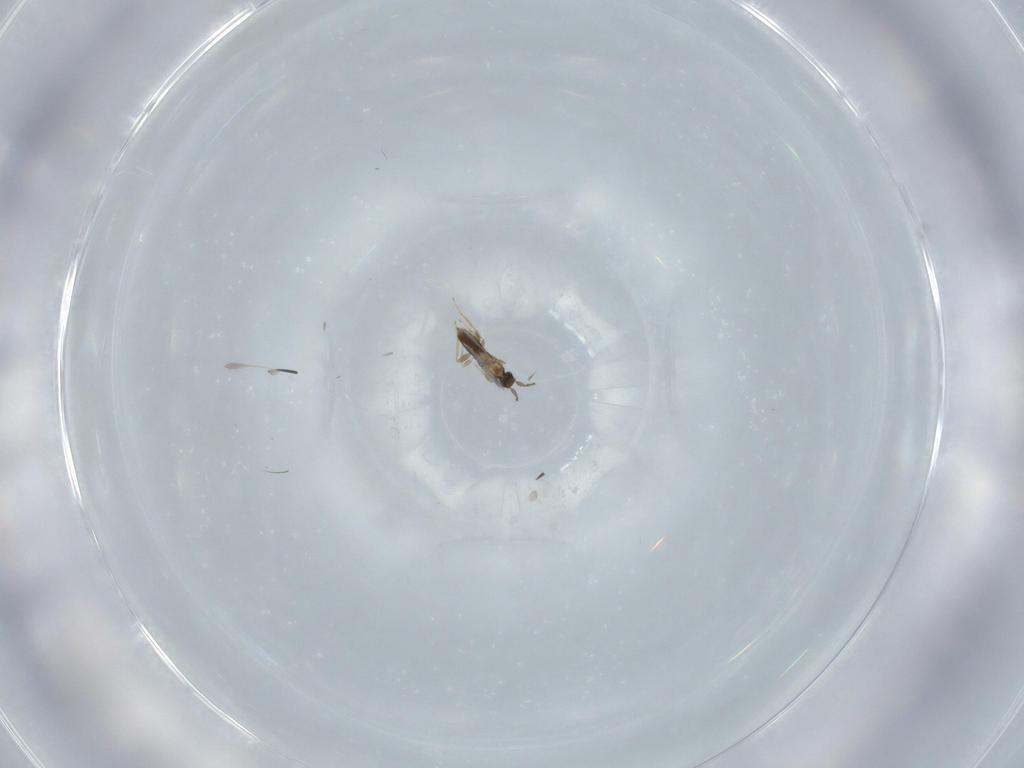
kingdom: Animalia
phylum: Arthropoda
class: Insecta
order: Hymenoptera
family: Mymaridae
